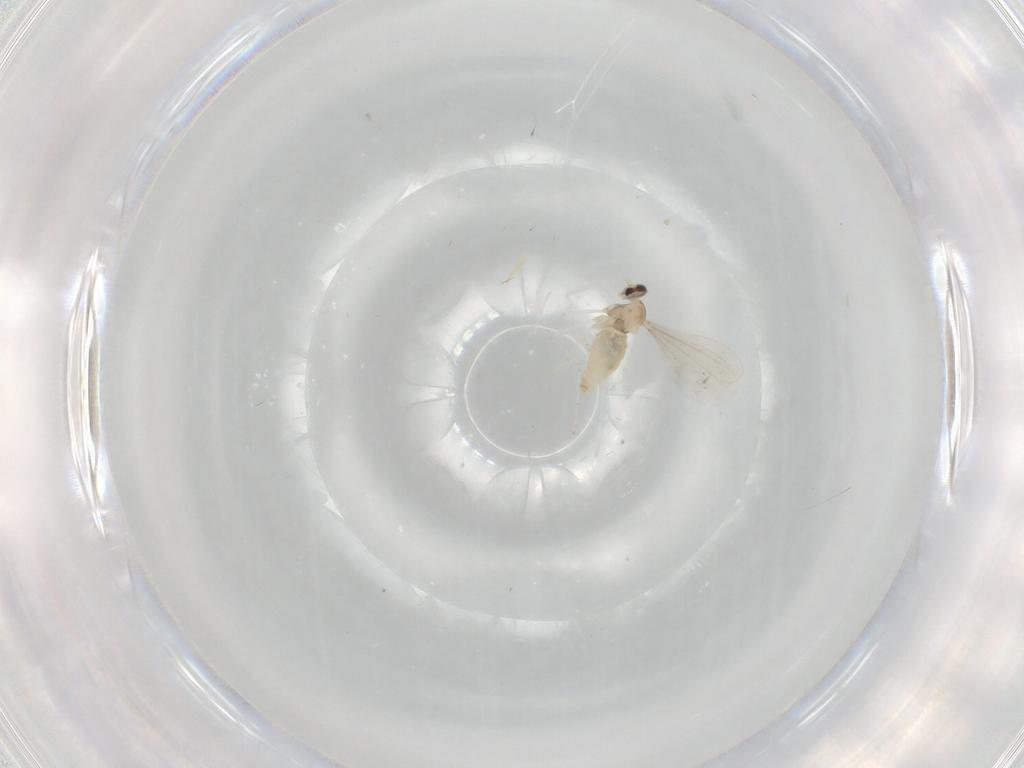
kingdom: Animalia
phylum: Arthropoda
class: Insecta
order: Diptera
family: Cecidomyiidae
